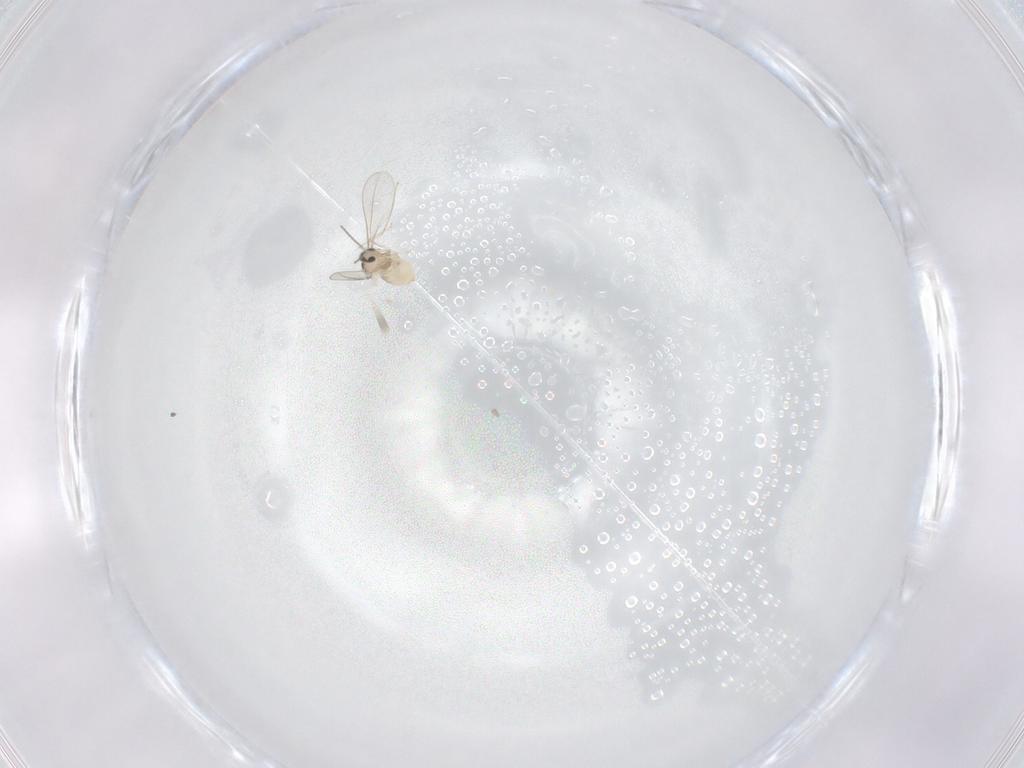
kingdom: Animalia
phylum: Arthropoda
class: Insecta
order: Diptera
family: Cecidomyiidae
